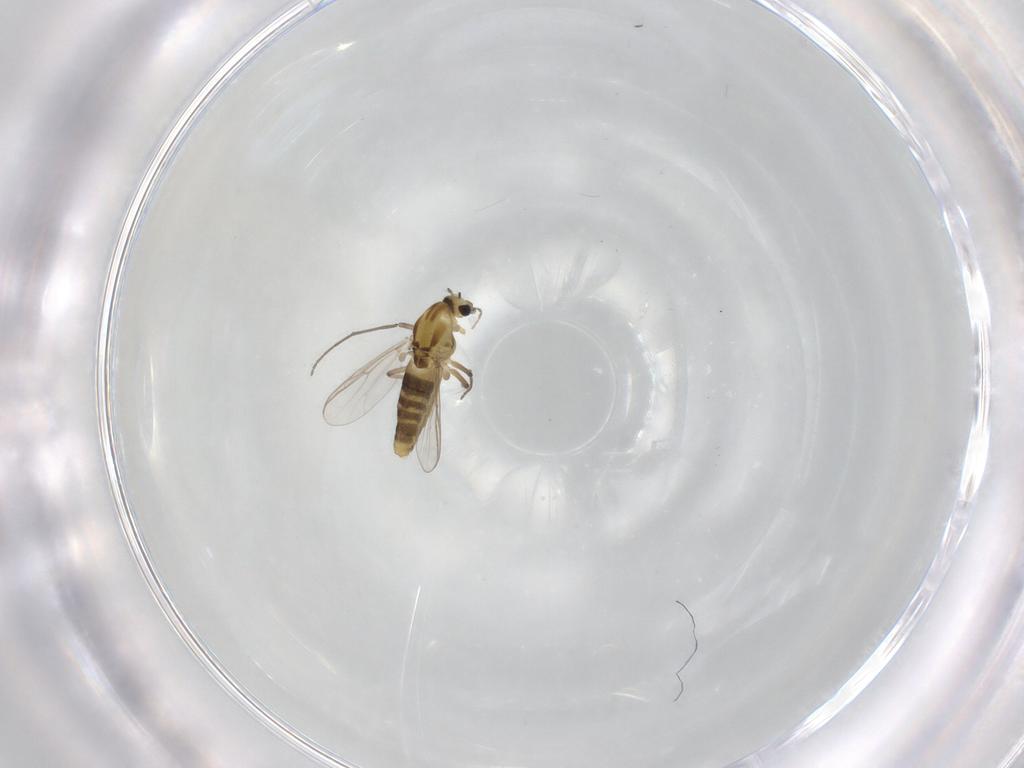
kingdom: Animalia
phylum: Arthropoda
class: Insecta
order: Diptera
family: Chironomidae
